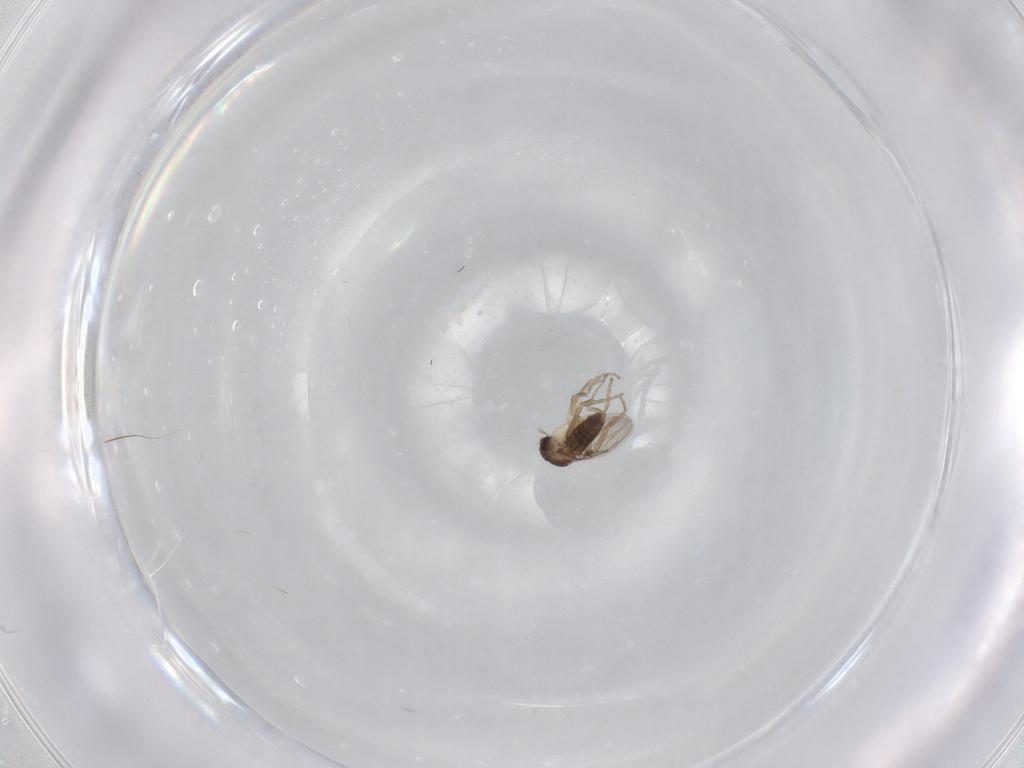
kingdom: Animalia
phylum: Arthropoda
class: Insecta
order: Diptera
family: Phoridae
